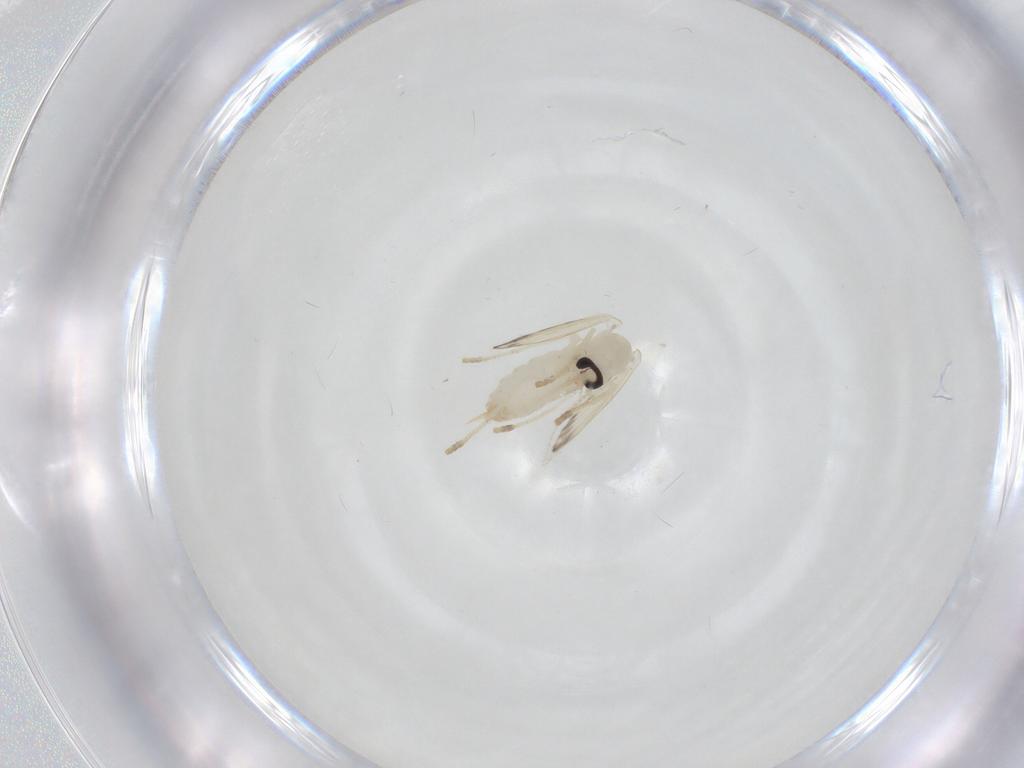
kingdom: Animalia
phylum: Arthropoda
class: Insecta
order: Diptera
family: Psychodidae
